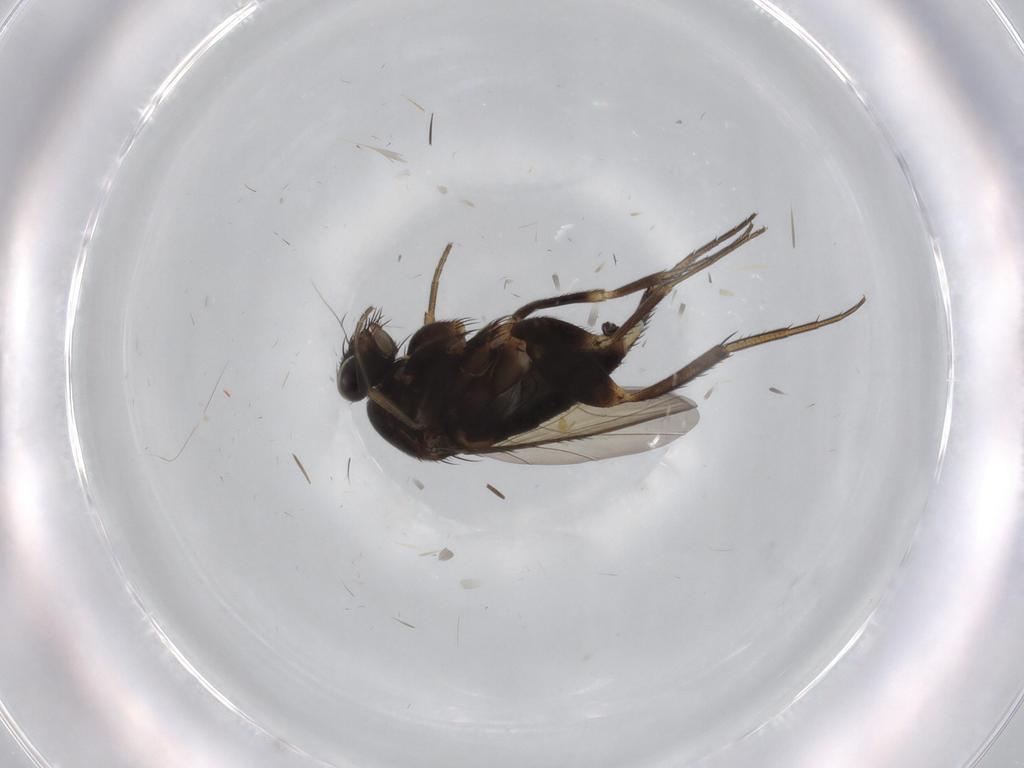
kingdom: Animalia
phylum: Arthropoda
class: Insecta
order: Diptera
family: Phoridae
